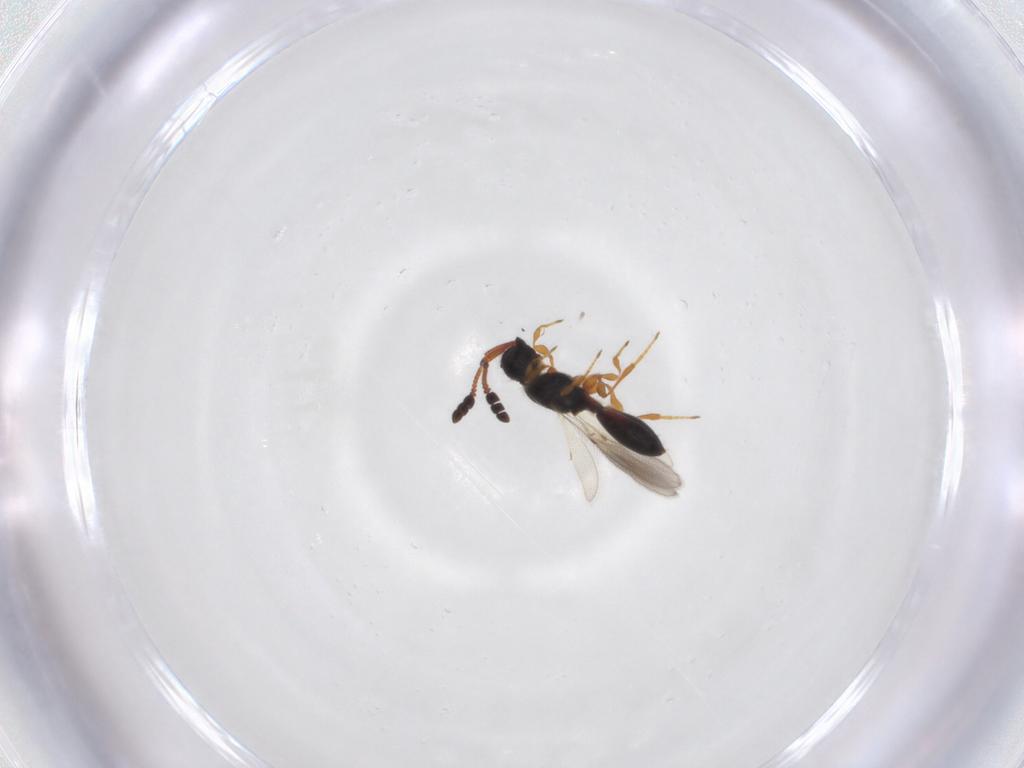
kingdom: Animalia
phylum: Arthropoda
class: Insecta
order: Hymenoptera
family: Diapriidae
